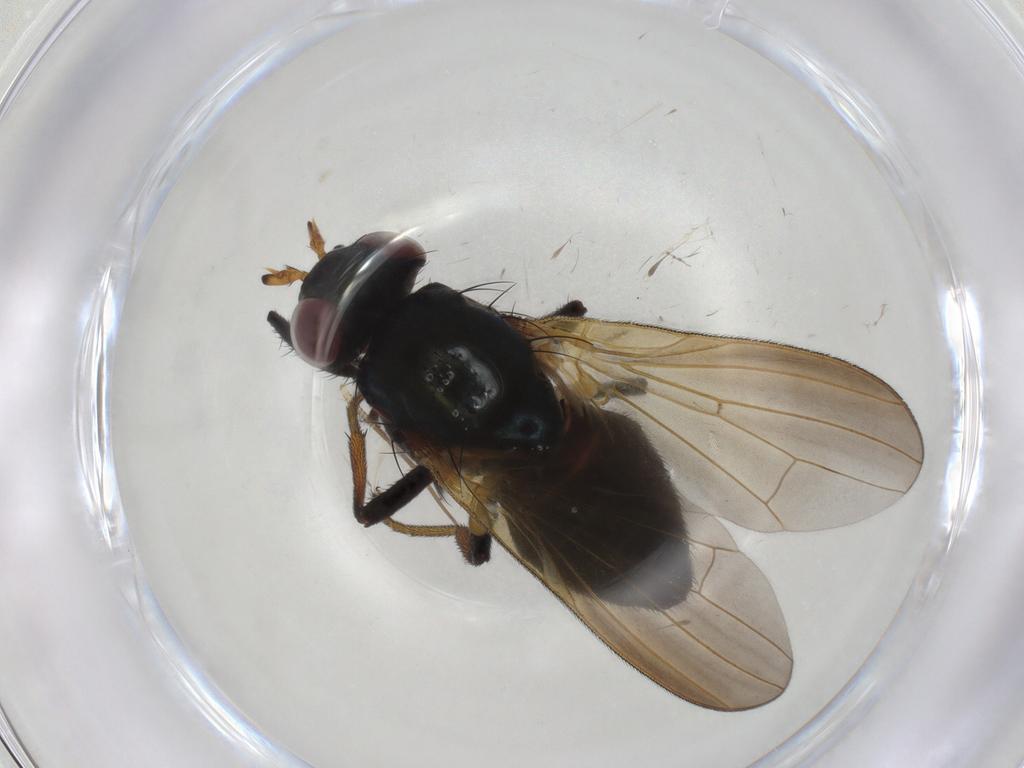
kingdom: Animalia
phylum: Arthropoda
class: Insecta
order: Diptera
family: Lauxaniidae
